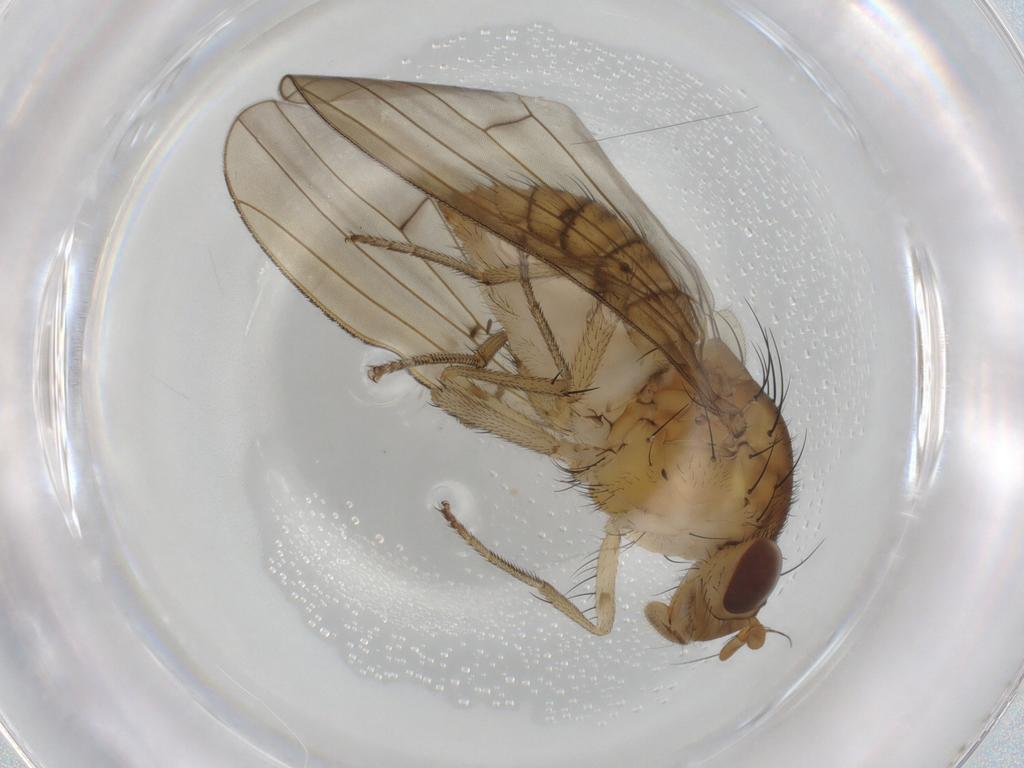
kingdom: Animalia
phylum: Arthropoda
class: Insecta
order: Diptera
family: Lauxaniidae
